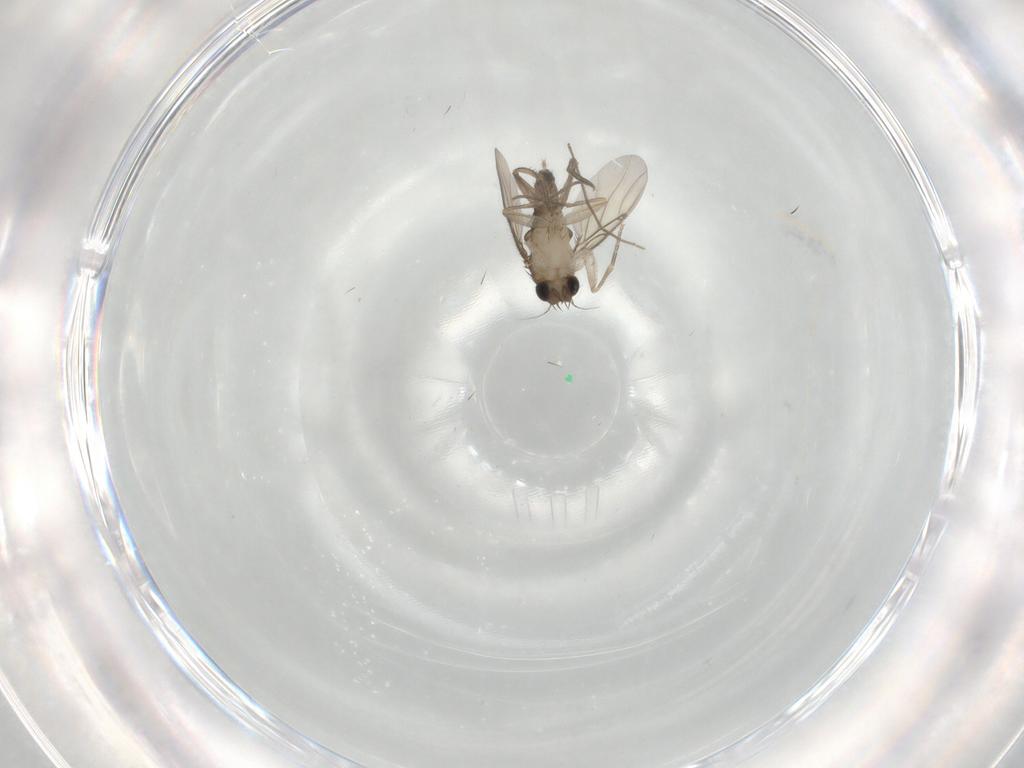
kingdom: Animalia
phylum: Arthropoda
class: Insecta
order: Diptera
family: Chironomidae
